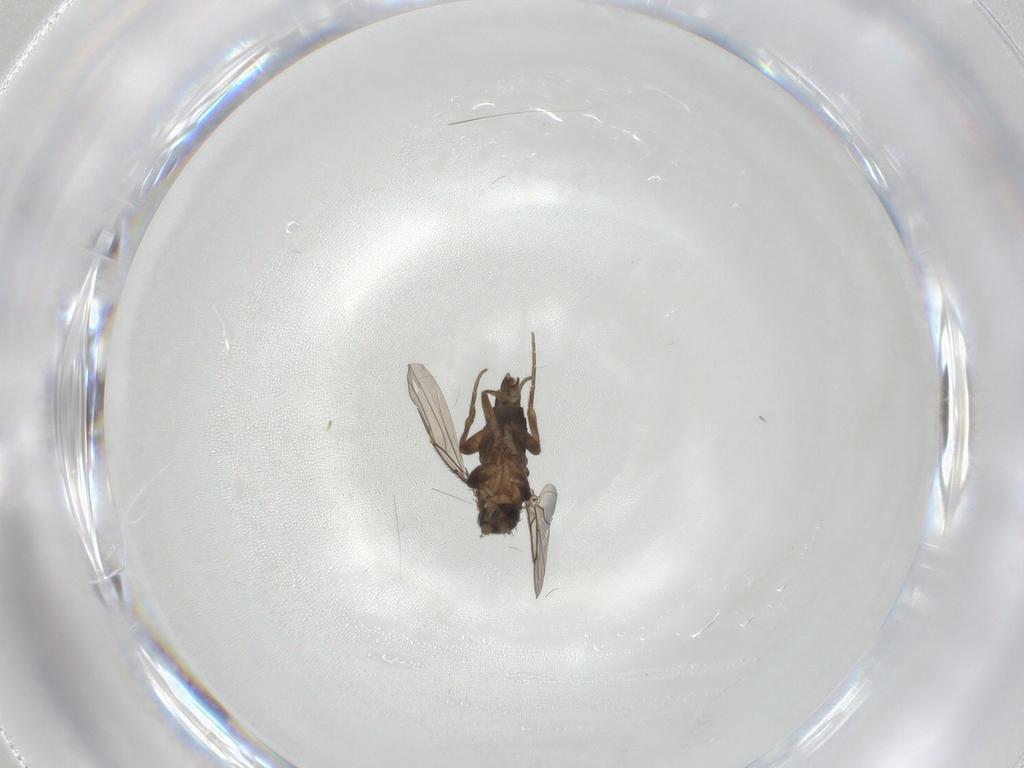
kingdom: Animalia
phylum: Arthropoda
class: Insecta
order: Diptera
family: Phoridae
